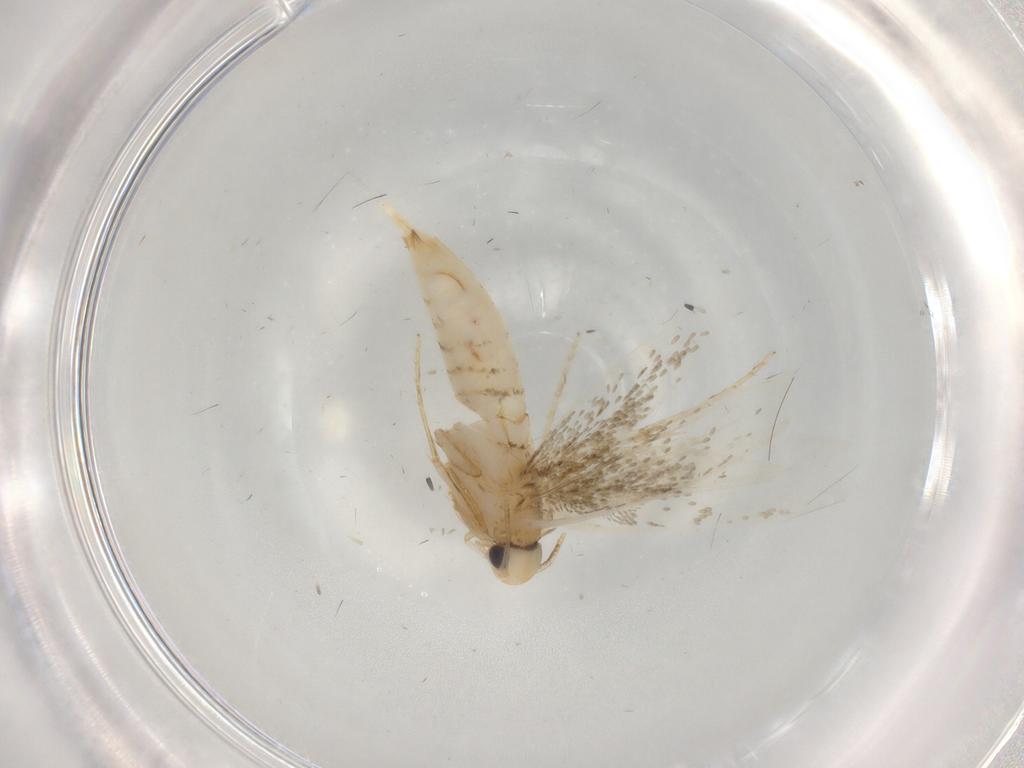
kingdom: Animalia
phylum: Arthropoda
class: Insecta
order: Lepidoptera
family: Tineidae
